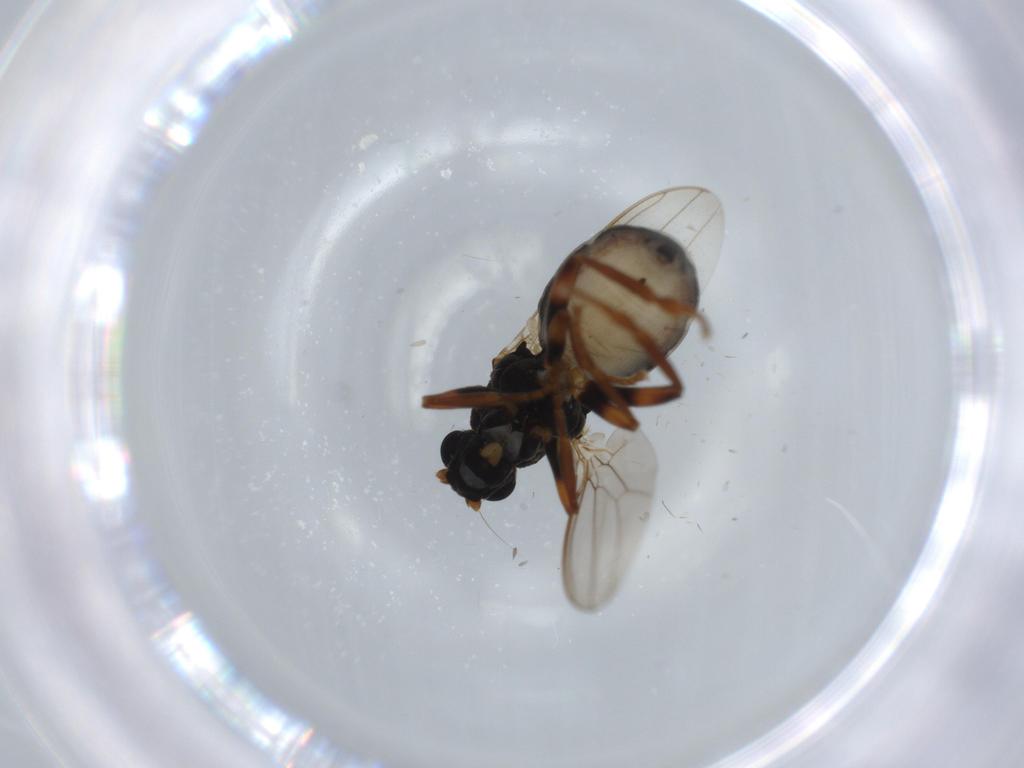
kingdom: Animalia
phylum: Arthropoda
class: Insecta
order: Diptera
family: Sphaeroceridae
